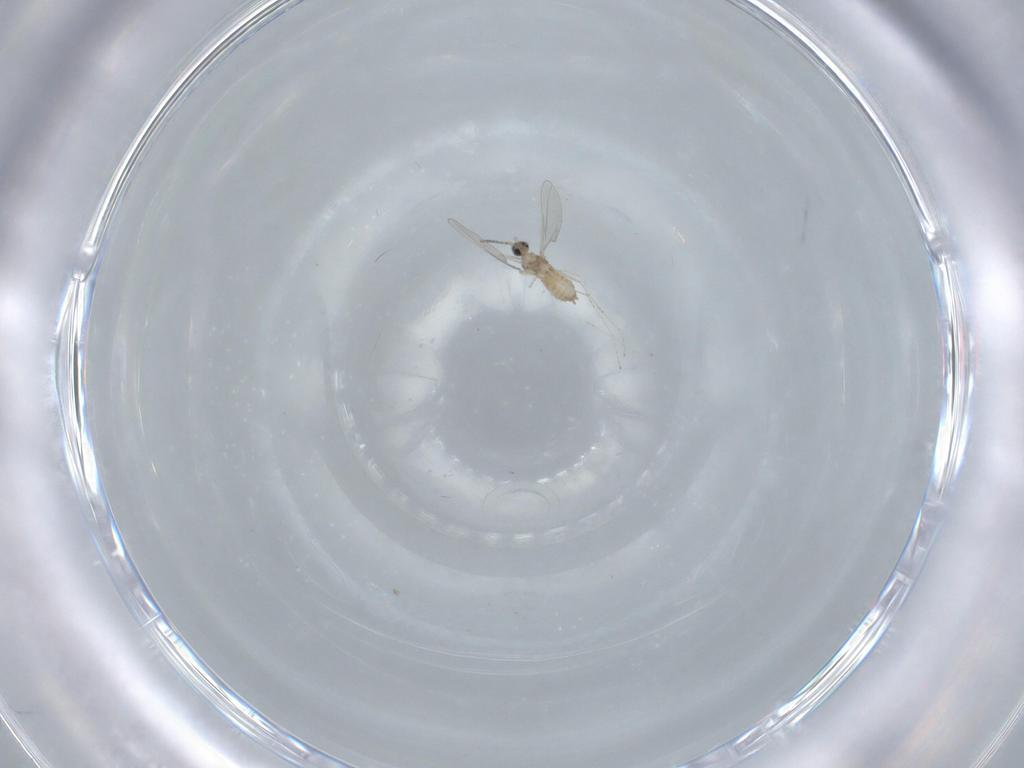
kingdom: Animalia
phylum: Arthropoda
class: Insecta
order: Diptera
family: Cecidomyiidae
